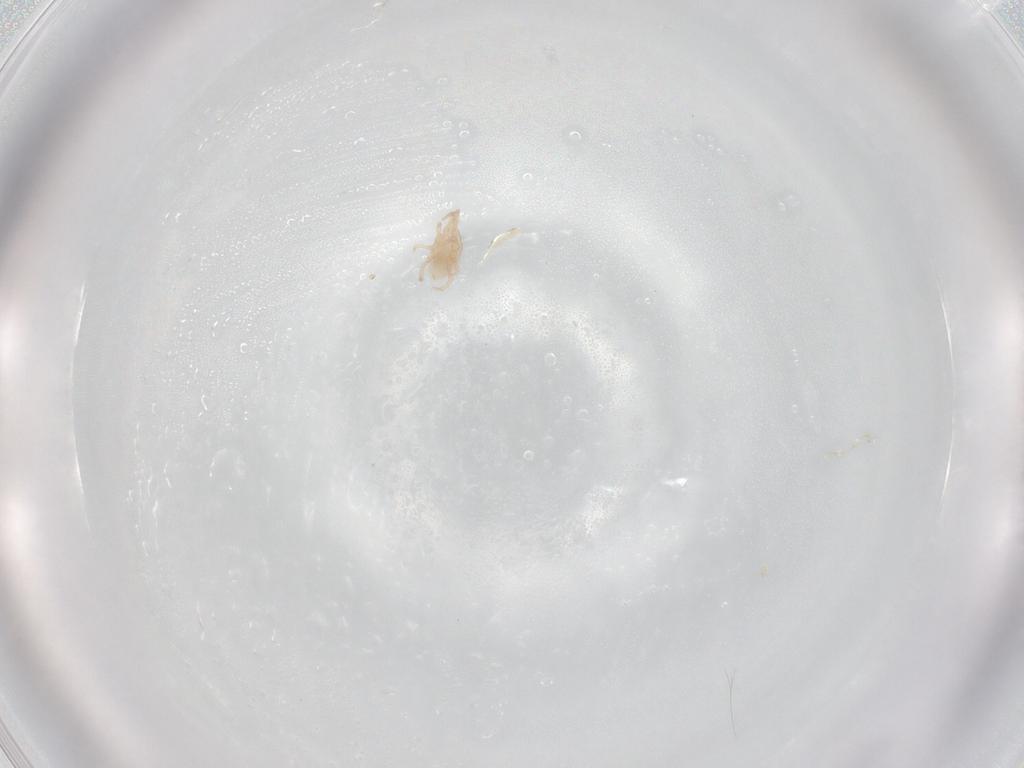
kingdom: Animalia
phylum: Arthropoda
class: Arachnida
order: Mesostigmata
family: Laelapidae
